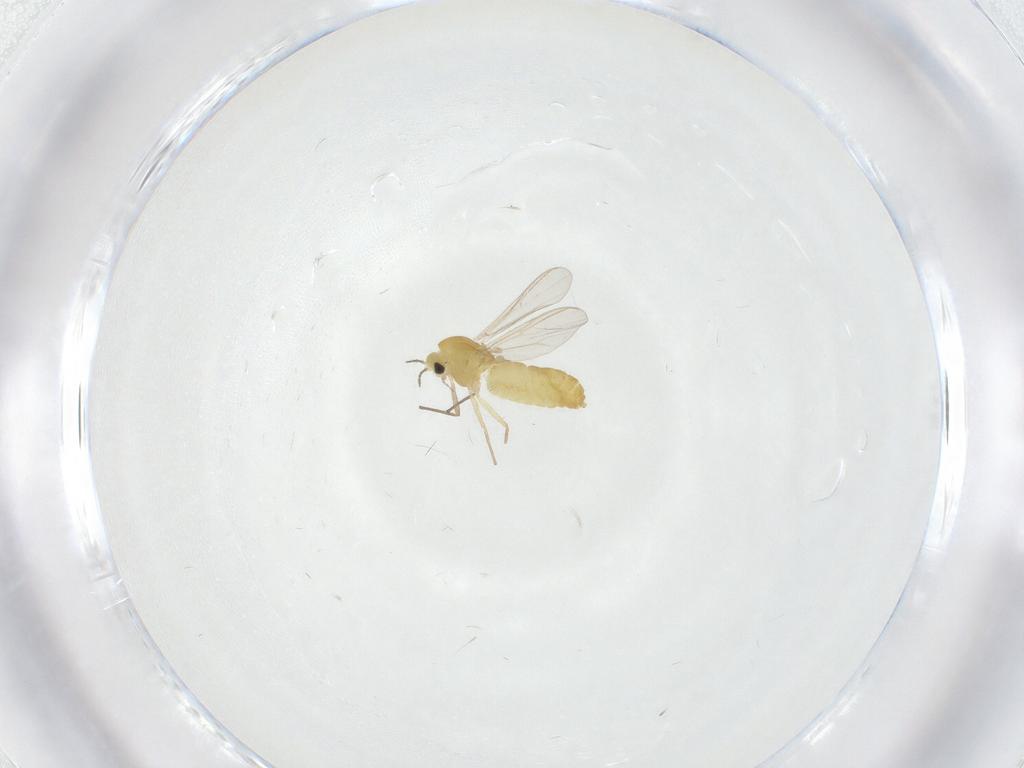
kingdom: Animalia
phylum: Arthropoda
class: Insecta
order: Diptera
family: Chironomidae
